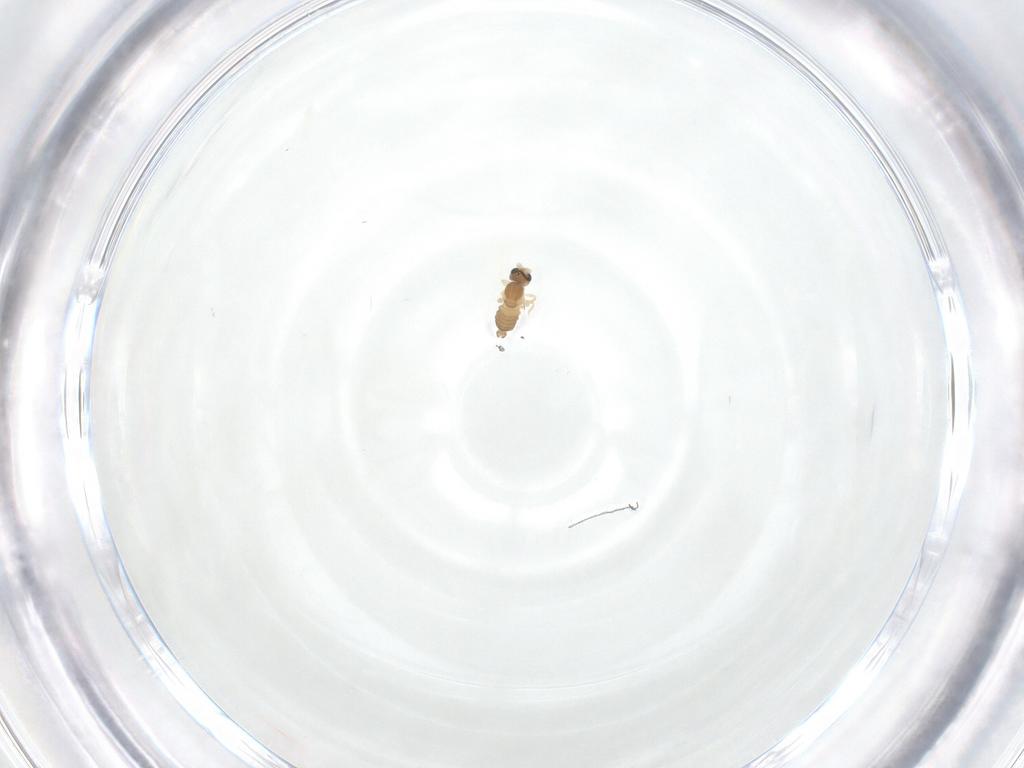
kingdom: Animalia
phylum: Arthropoda
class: Insecta
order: Diptera
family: Cecidomyiidae
